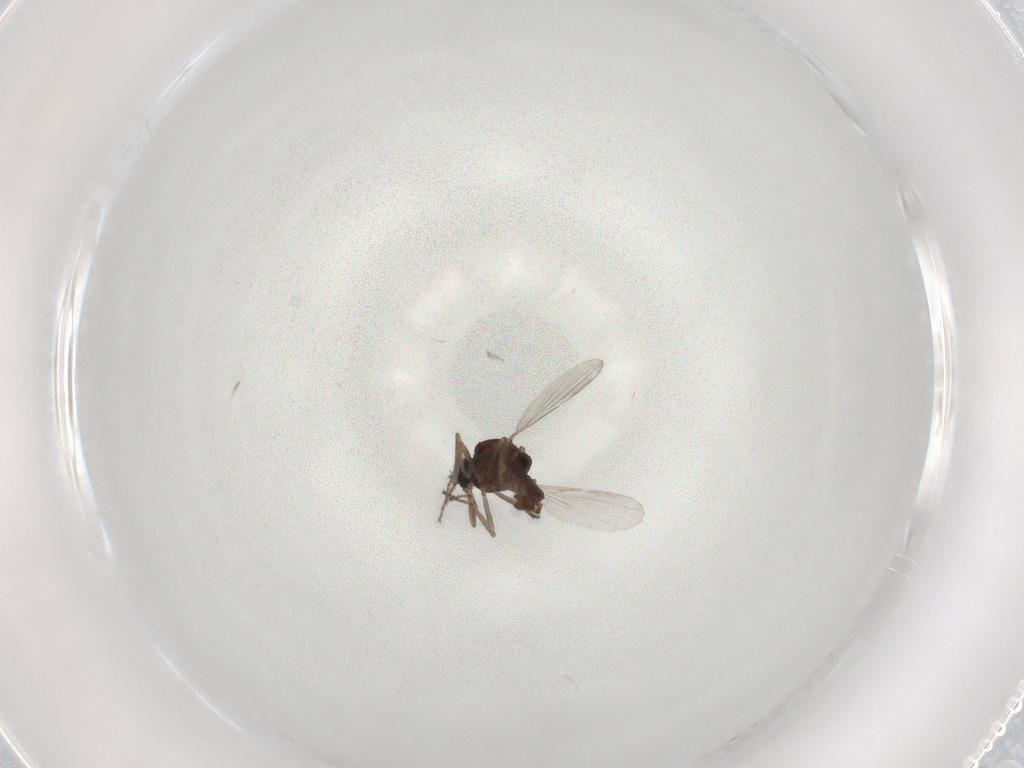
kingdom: Animalia
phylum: Arthropoda
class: Insecta
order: Diptera
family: Ceratopogonidae
